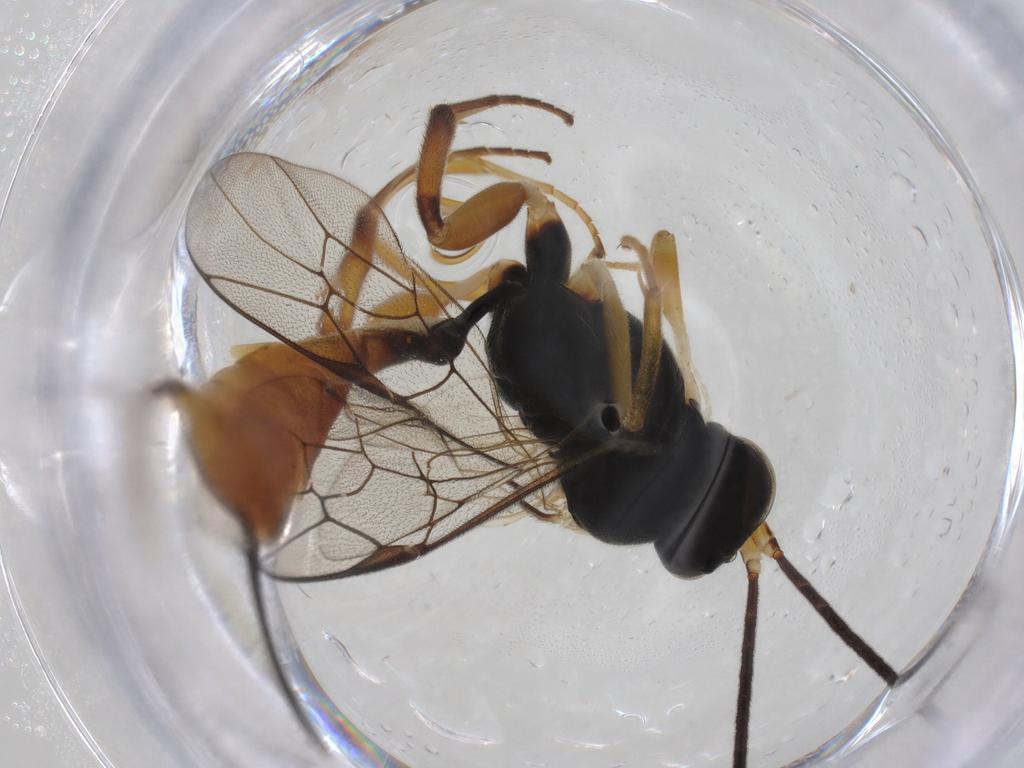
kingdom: Animalia
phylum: Arthropoda
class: Insecta
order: Hymenoptera
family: Ichneumonidae
